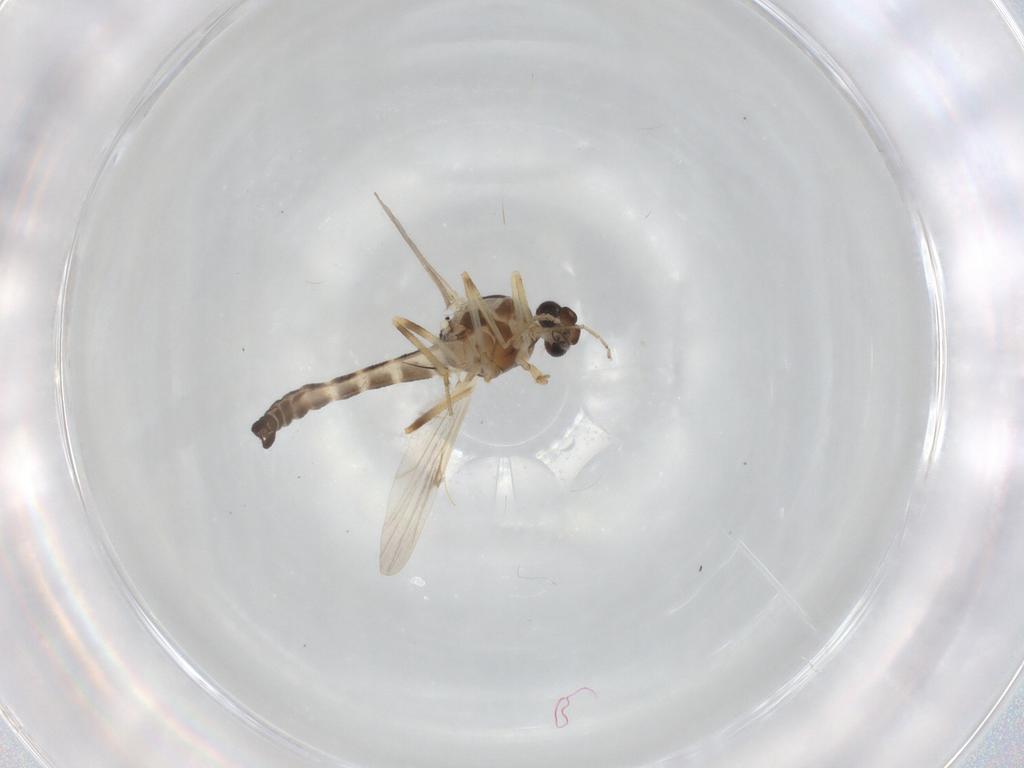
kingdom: Animalia
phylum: Arthropoda
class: Insecta
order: Diptera
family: Ceratopogonidae
